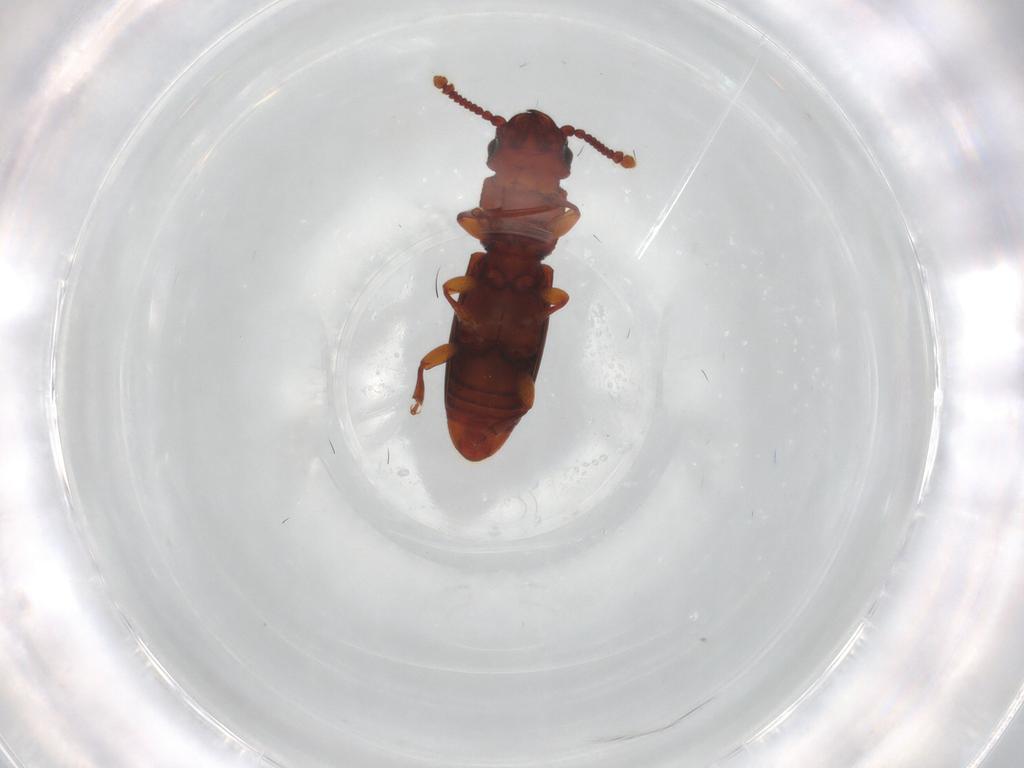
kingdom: Animalia
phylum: Arthropoda
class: Insecta
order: Coleoptera
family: Monotomidae
